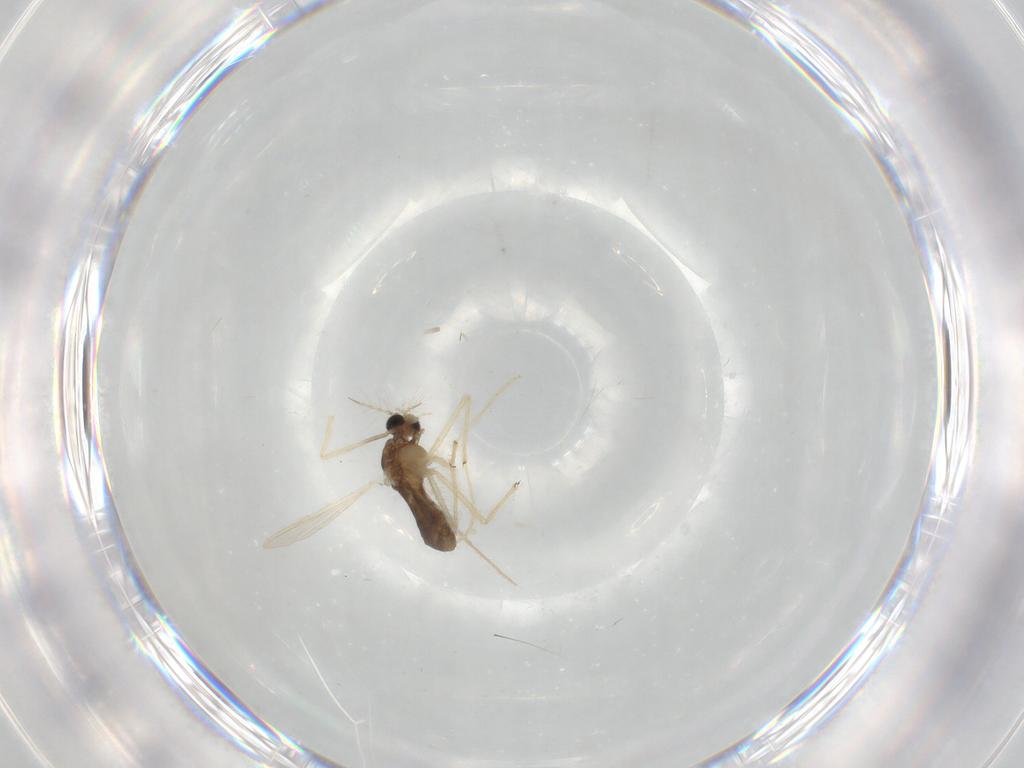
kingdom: Animalia
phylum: Arthropoda
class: Insecta
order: Diptera
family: Chironomidae
